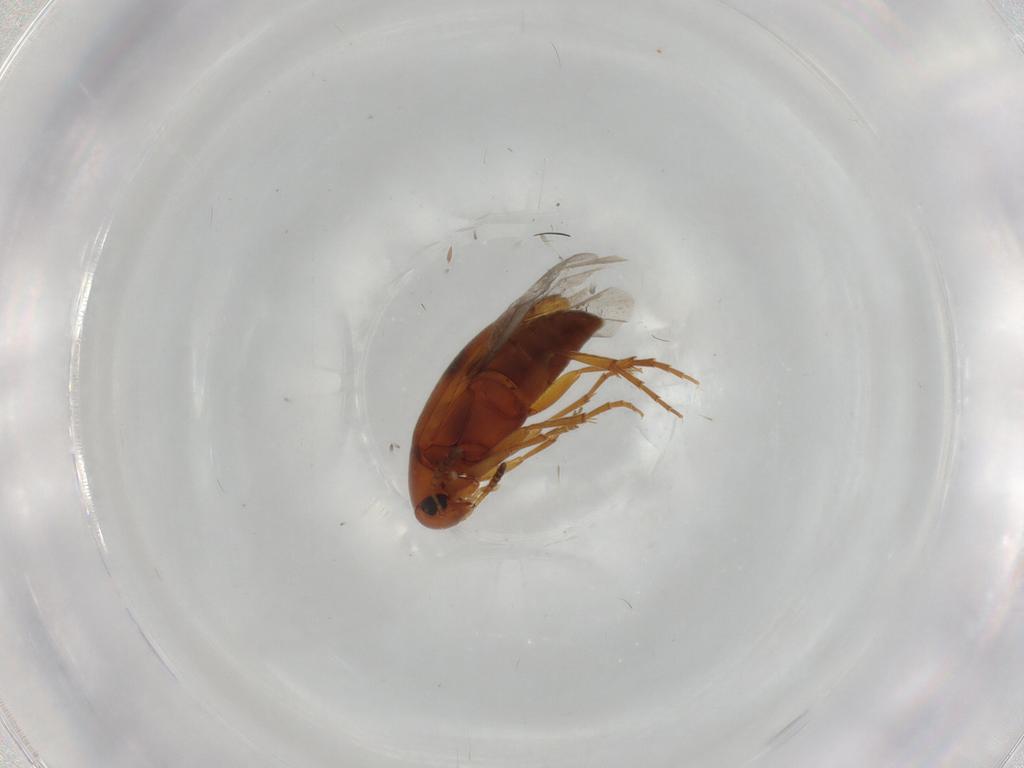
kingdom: Animalia
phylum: Arthropoda
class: Insecta
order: Coleoptera
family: Scraptiidae
